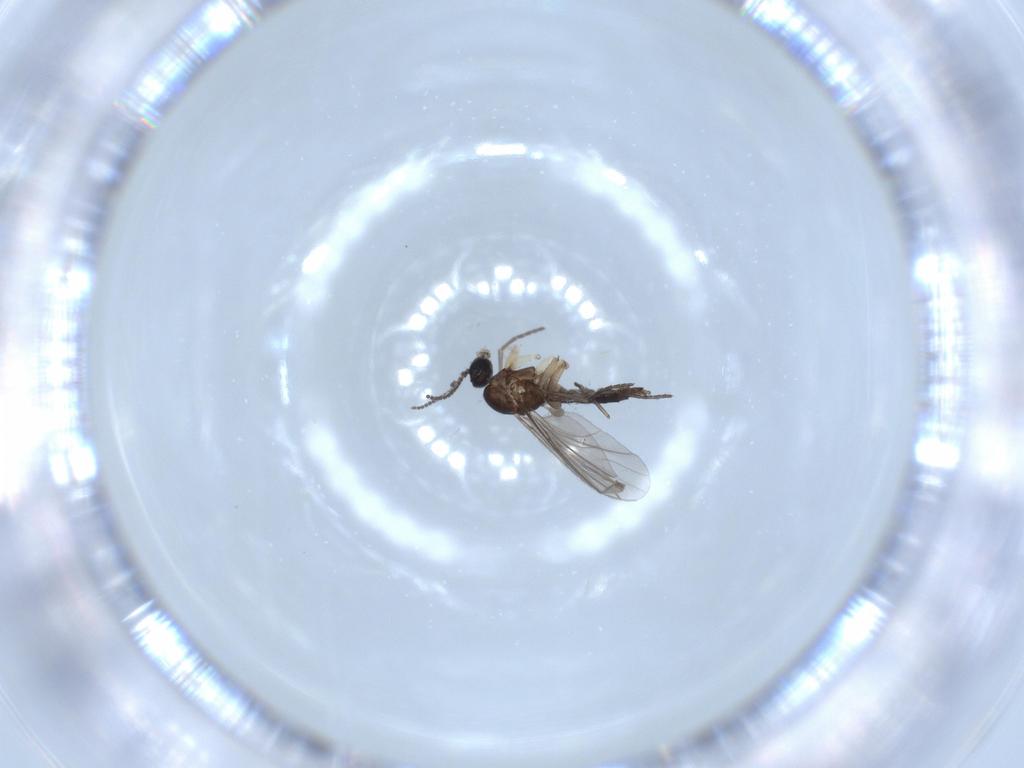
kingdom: Animalia
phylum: Arthropoda
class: Insecta
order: Diptera
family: Sciaridae
